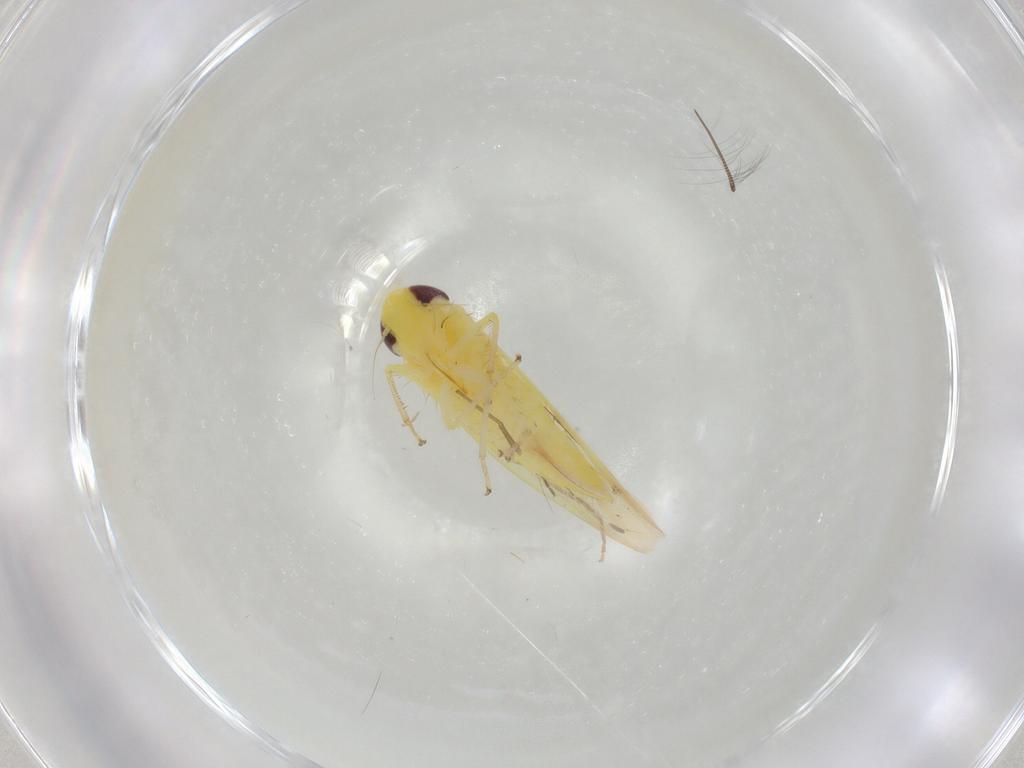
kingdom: Animalia
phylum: Arthropoda
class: Insecta
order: Hemiptera
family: Cicadellidae
